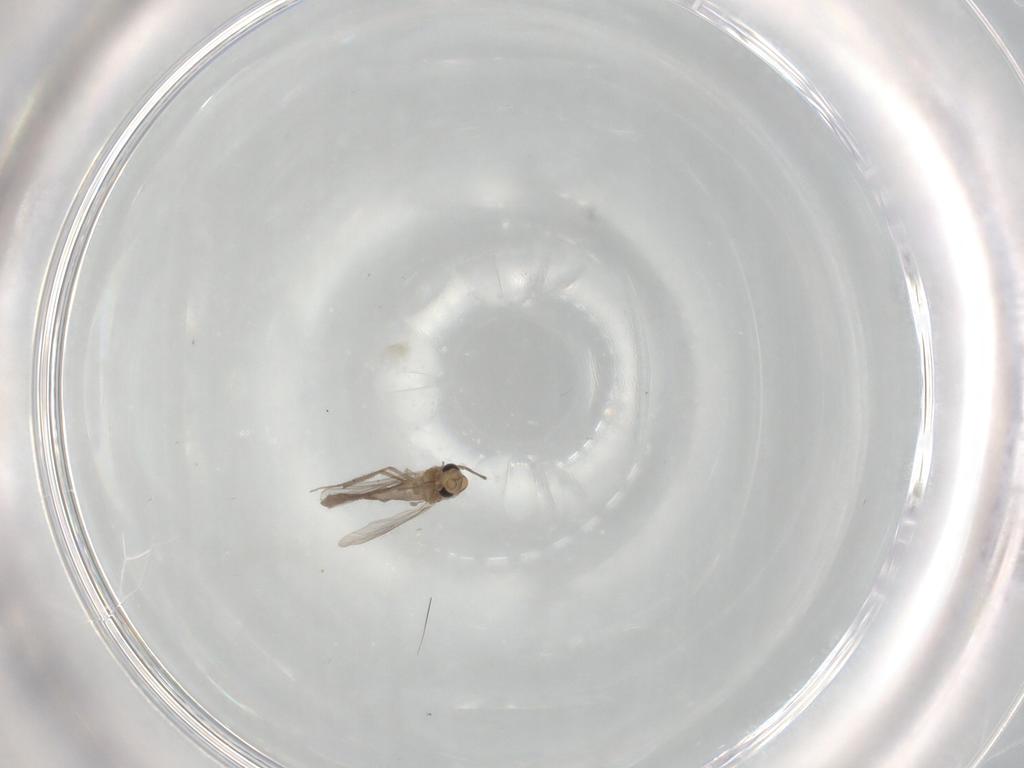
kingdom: Animalia
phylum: Arthropoda
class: Insecta
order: Diptera
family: Chironomidae
